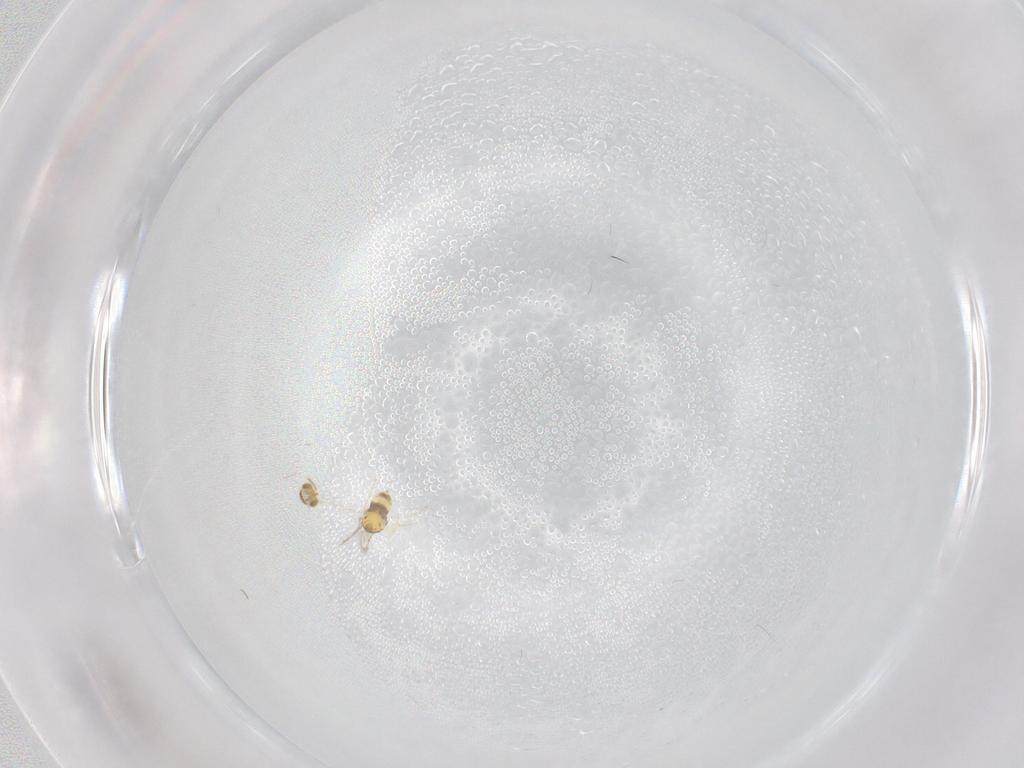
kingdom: Animalia
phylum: Arthropoda
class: Insecta
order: Hymenoptera
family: Aphelinidae
